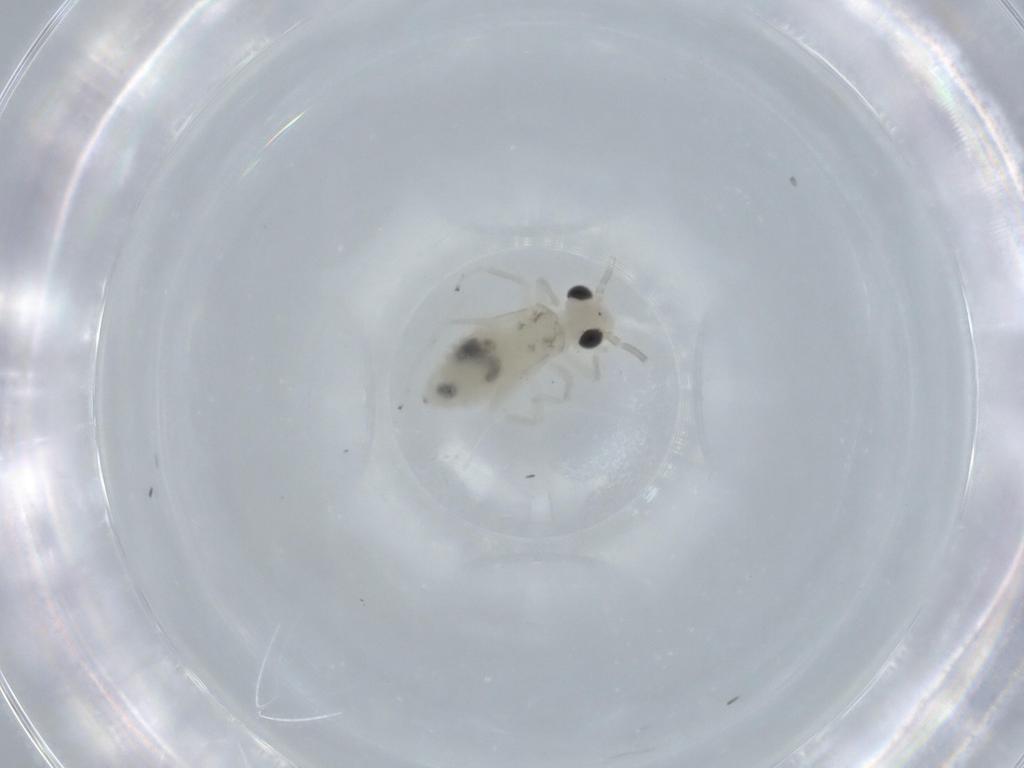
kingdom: Animalia
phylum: Arthropoda
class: Insecta
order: Psocodea
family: Caeciliusidae
